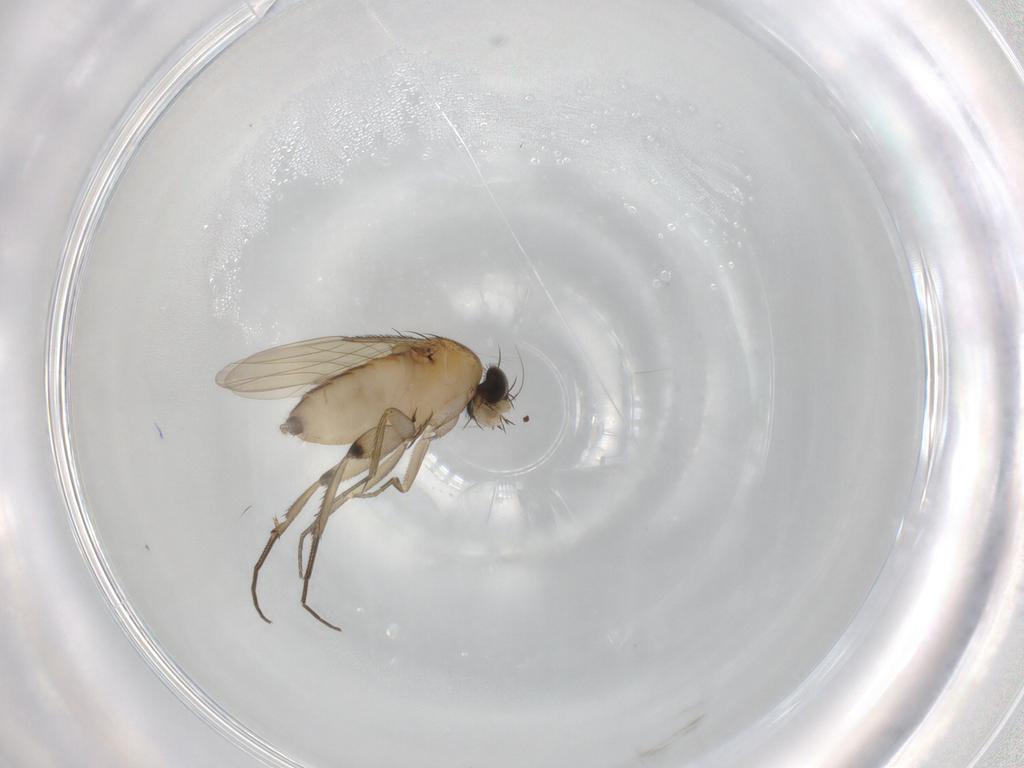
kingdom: Animalia
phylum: Arthropoda
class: Insecta
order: Diptera
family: Phoridae
